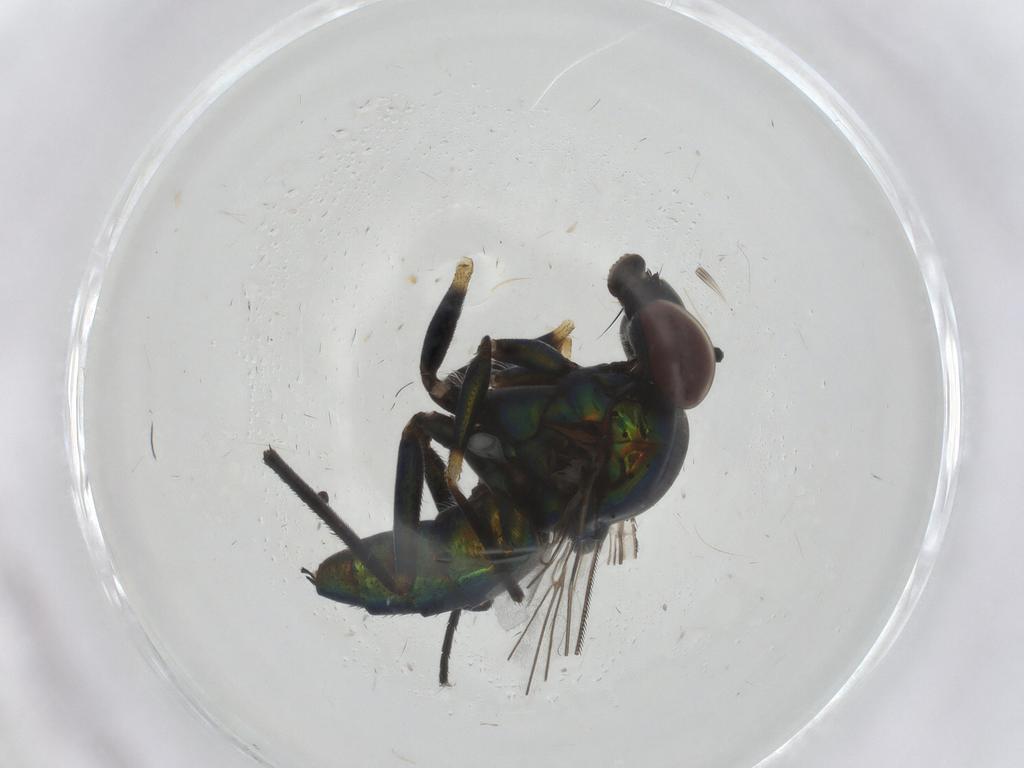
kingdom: Animalia
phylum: Arthropoda
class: Insecta
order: Diptera
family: Dolichopodidae
